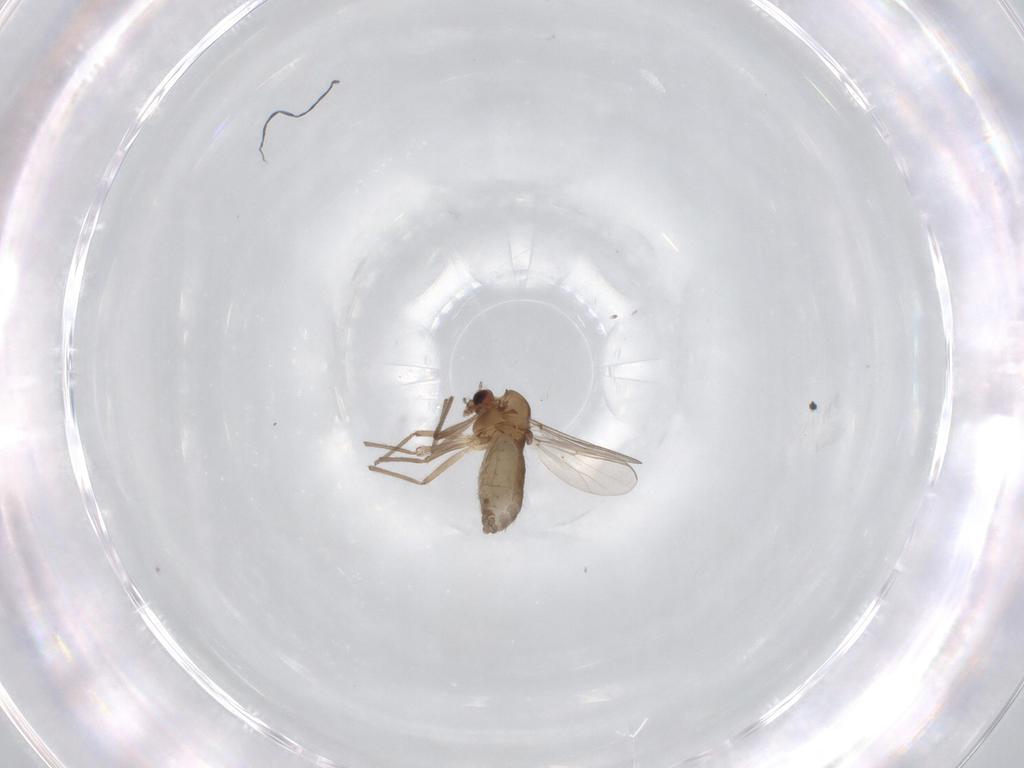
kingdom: Animalia
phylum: Arthropoda
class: Insecta
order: Diptera
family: Chironomidae
